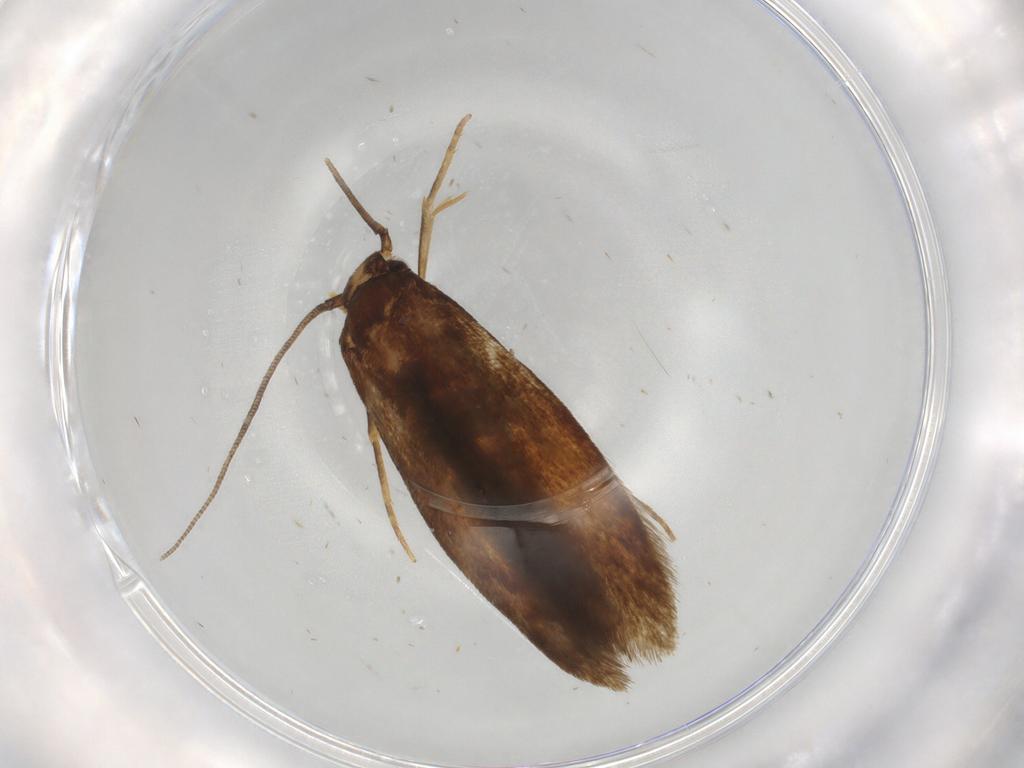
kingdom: Animalia
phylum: Arthropoda
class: Insecta
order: Lepidoptera
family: Tineidae
